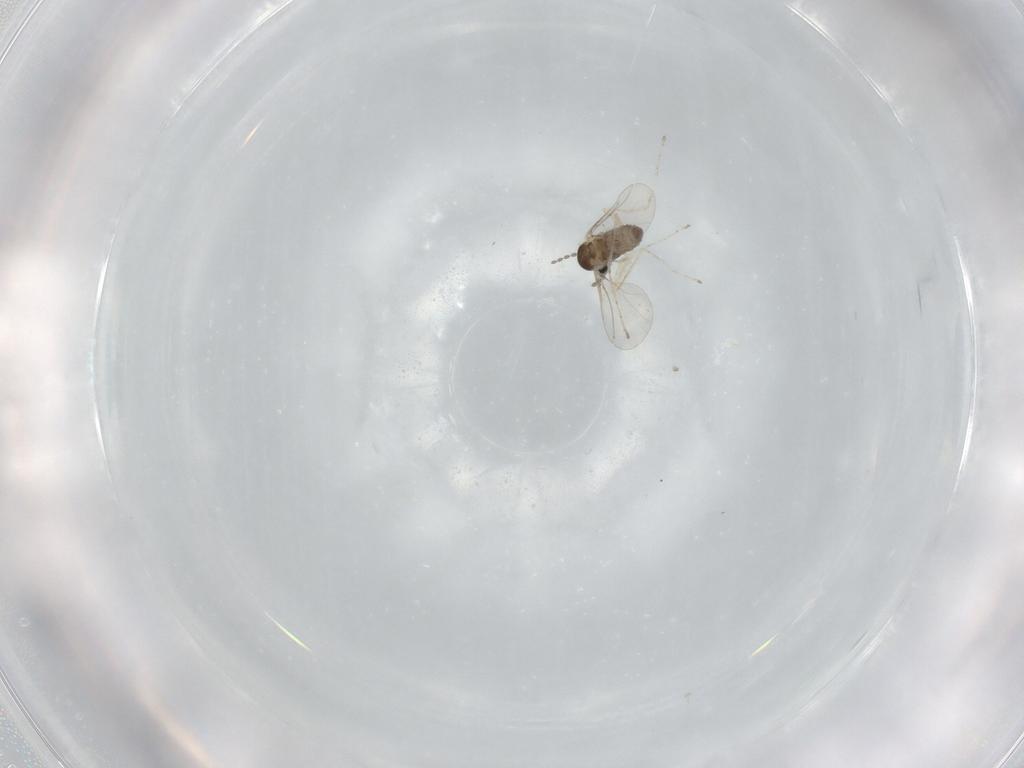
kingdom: Animalia
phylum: Arthropoda
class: Insecta
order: Diptera
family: Cecidomyiidae
